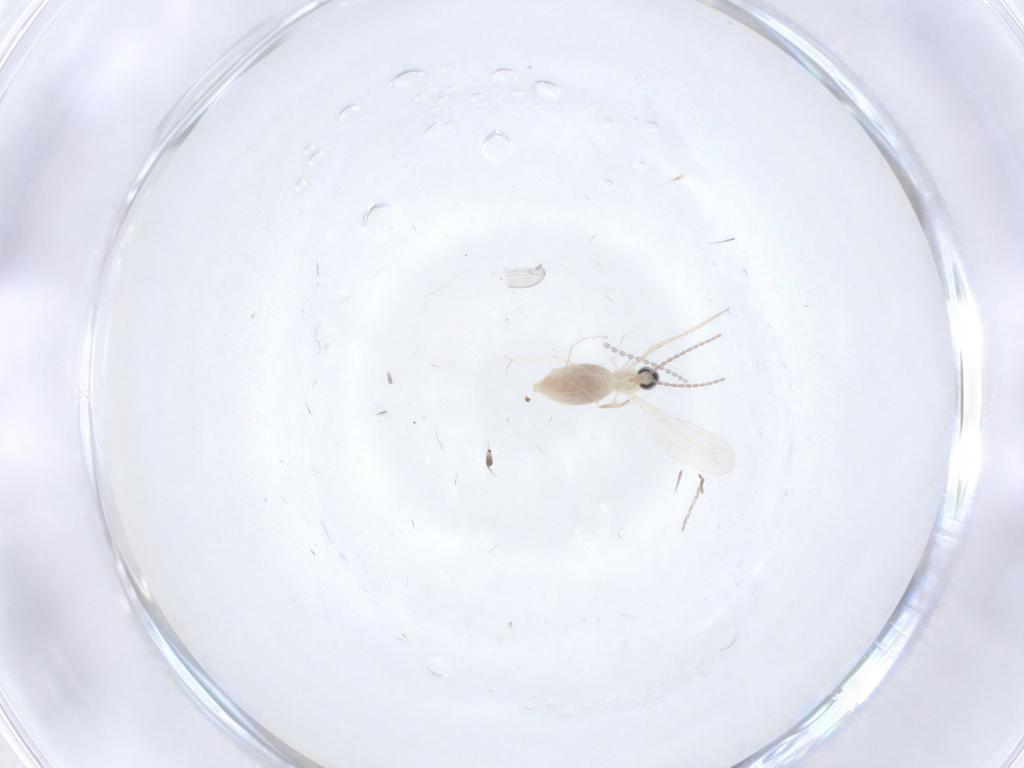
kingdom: Animalia
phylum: Arthropoda
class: Insecta
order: Diptera
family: Cecidomyiidae
